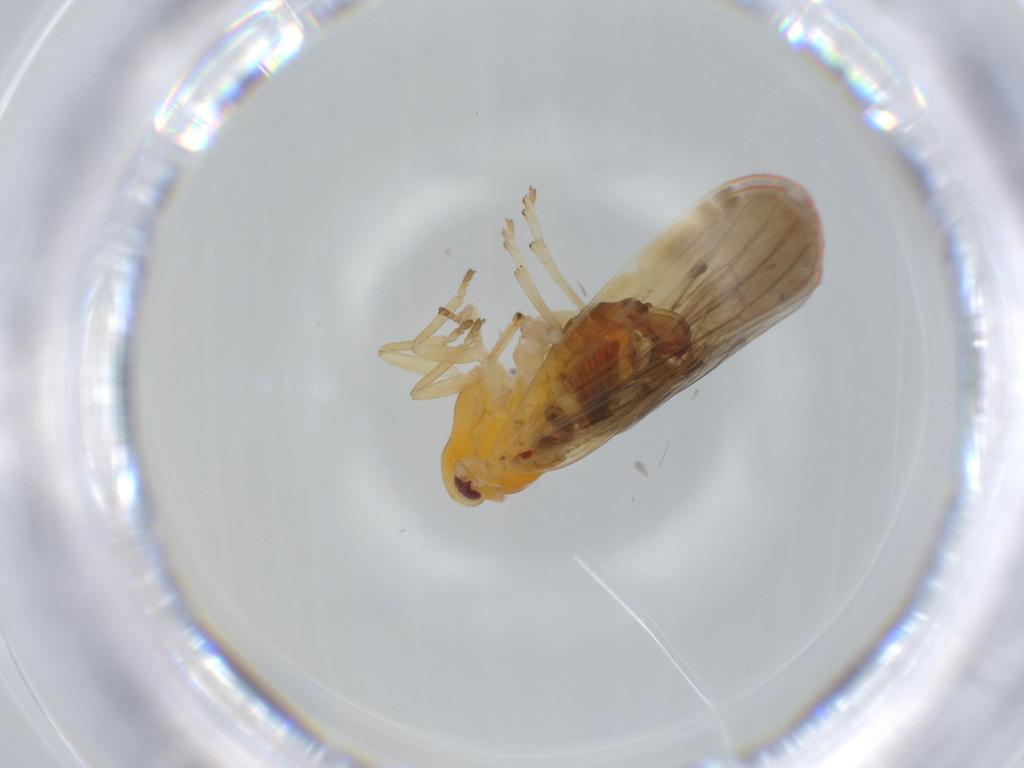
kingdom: Animalia
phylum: Arthropoda
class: Insecta
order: Hemiptera
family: Derbidae
